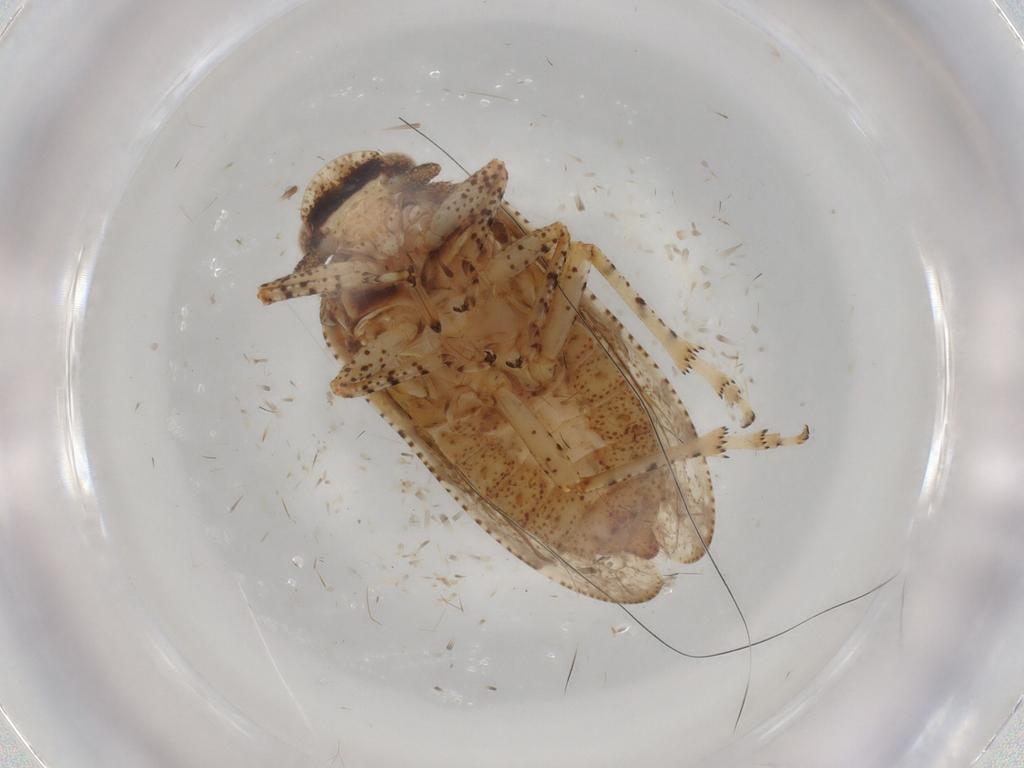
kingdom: Animalia
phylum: Arthropoda
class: Insecta
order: Hemiptera
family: Tettigometridae
